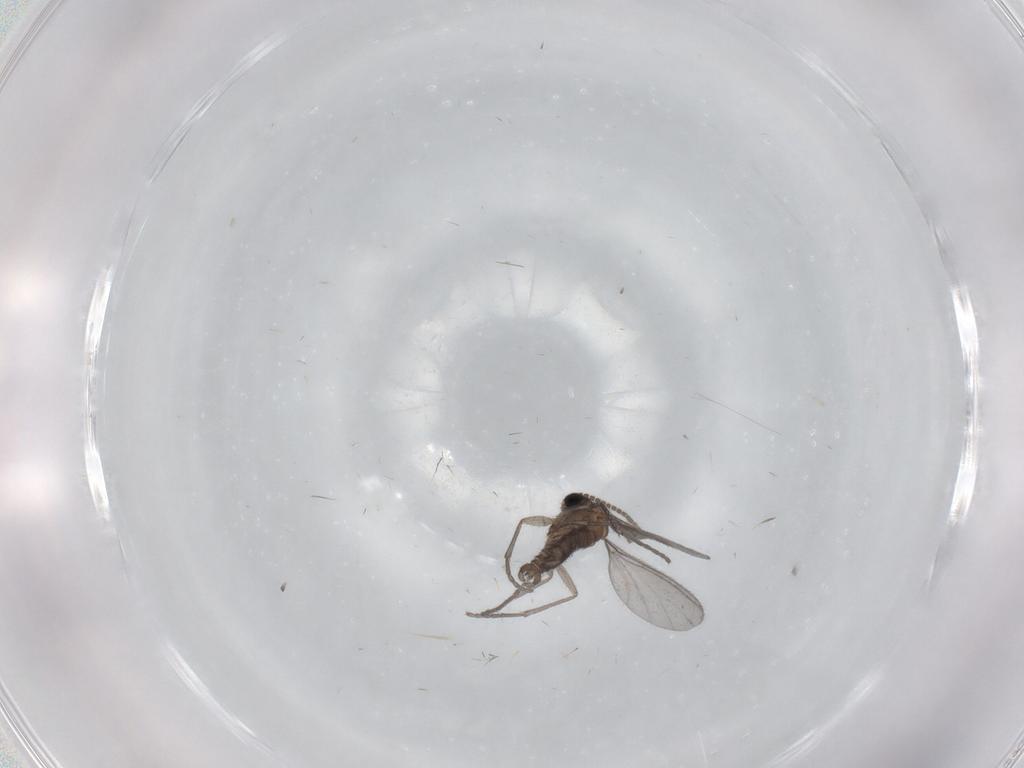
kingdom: Animalia
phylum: Arthropoda
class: Insecta
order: Diptera
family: Sciaridae
